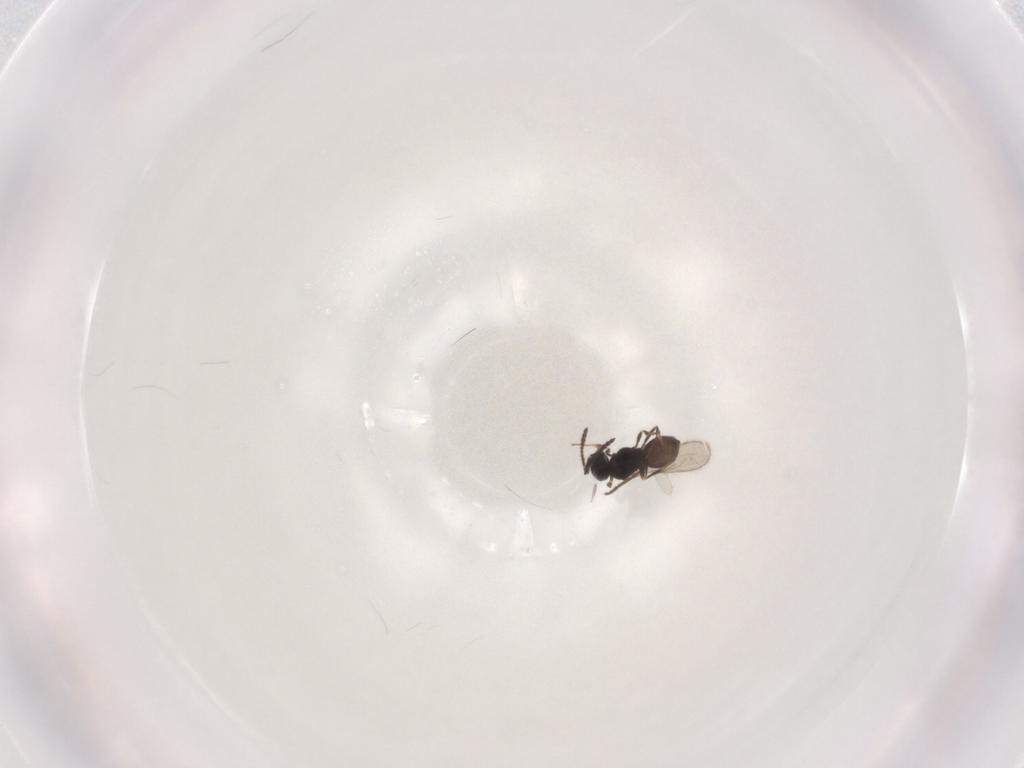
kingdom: Animalia
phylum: Arthropoda
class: Insecta
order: Hymenoptera
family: Scelionidae
